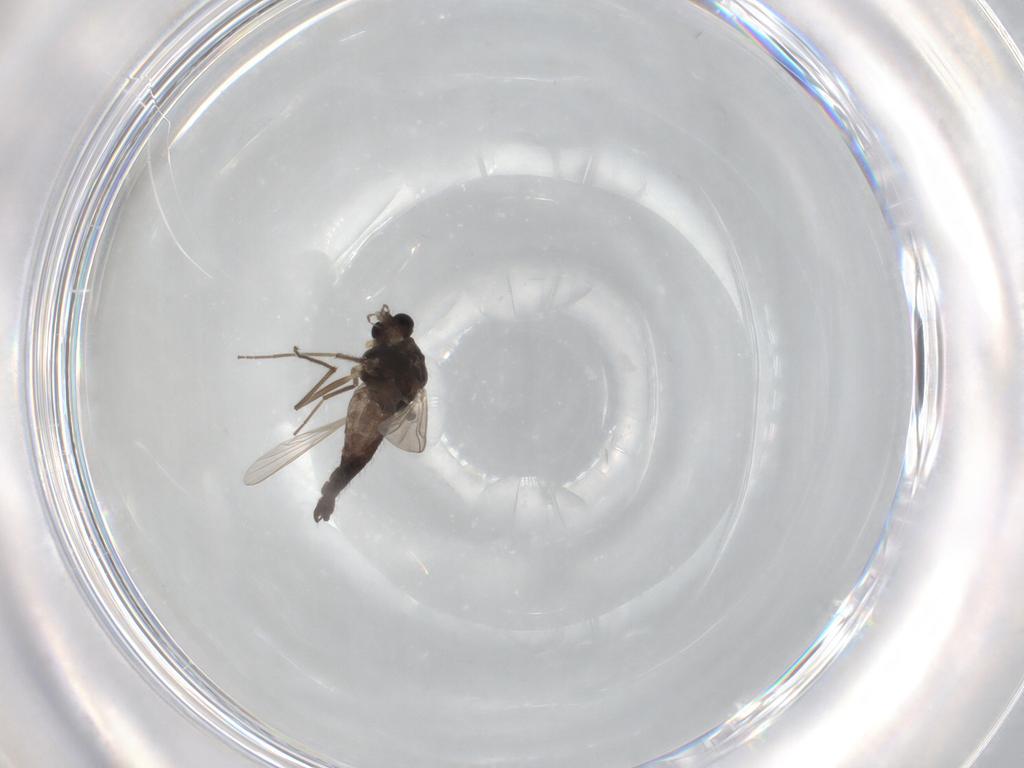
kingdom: Animalia
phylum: Arthropoda
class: Insecta
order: Diptera
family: Chironomidae
